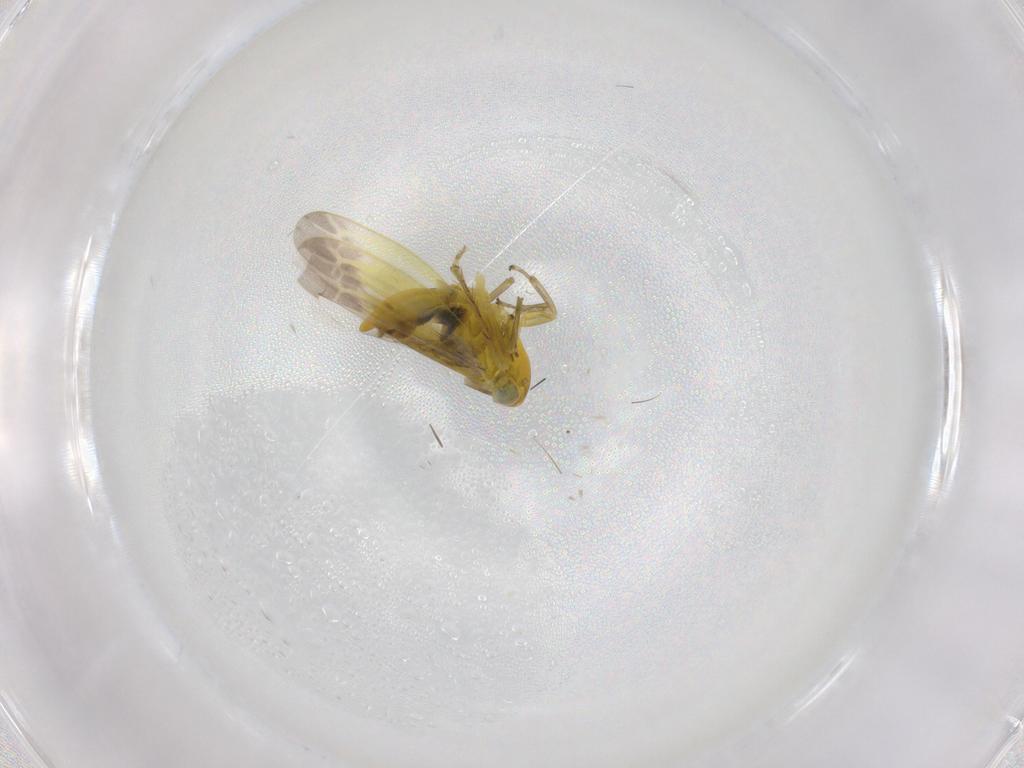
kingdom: Animalia
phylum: Arthropoda
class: Insecta
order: Hemiptera
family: Cicadellidae
